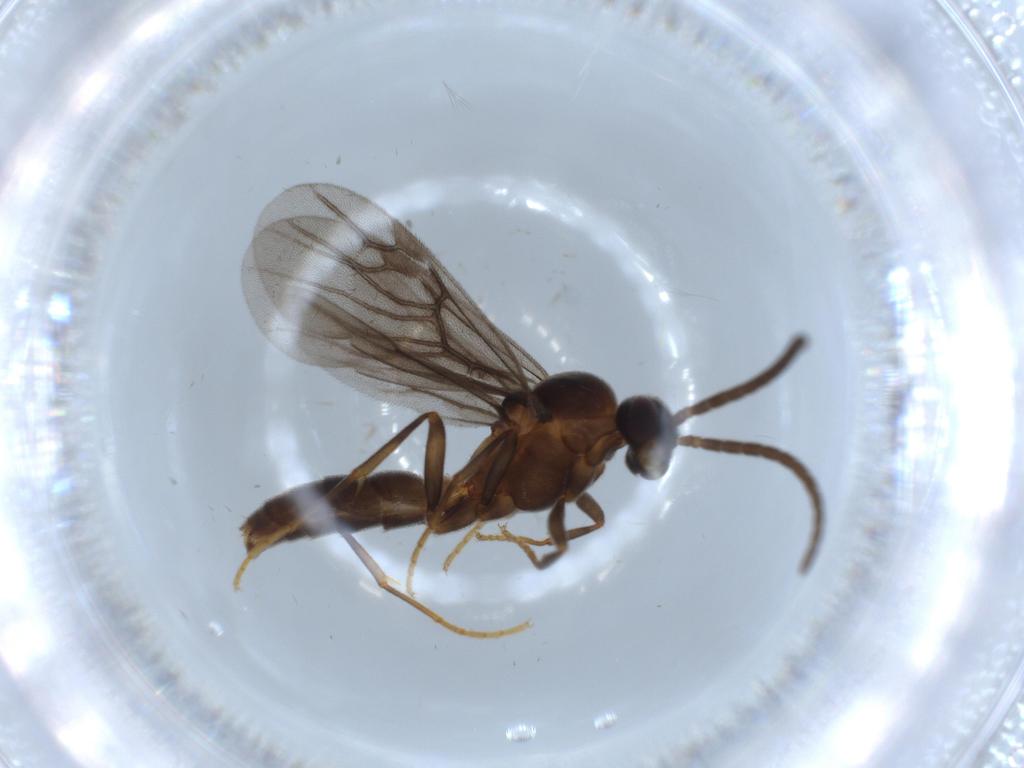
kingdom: Animalia
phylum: Arthropoda
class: Insecta
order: Hymenoptera
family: Formicidae
